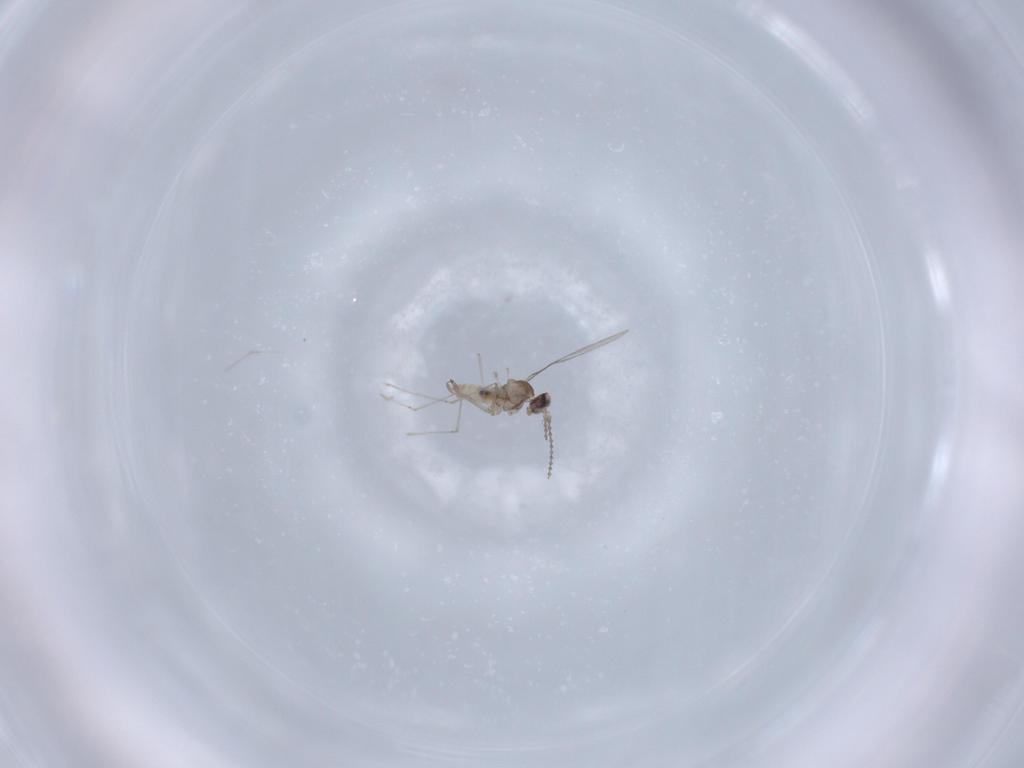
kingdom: Animalia
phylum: Arthropoda
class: Insecta
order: Diptera
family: Cecidomyiidae
